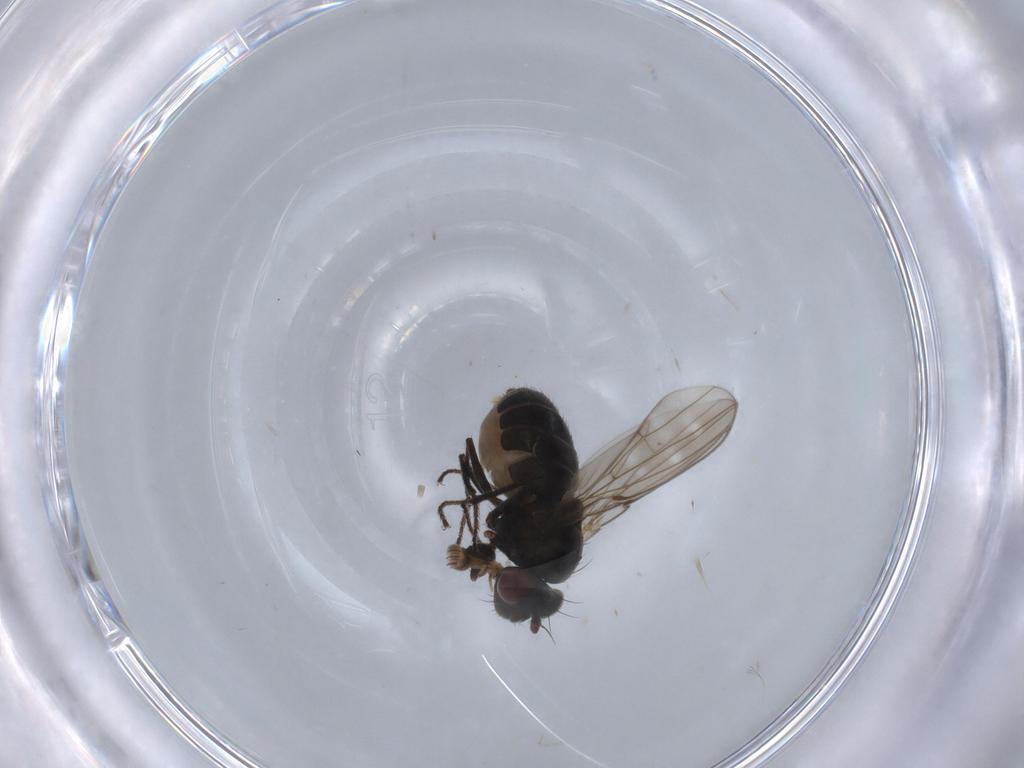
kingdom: Animalia
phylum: Arthropoda
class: Insecta
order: Diptera
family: Ephydridae
